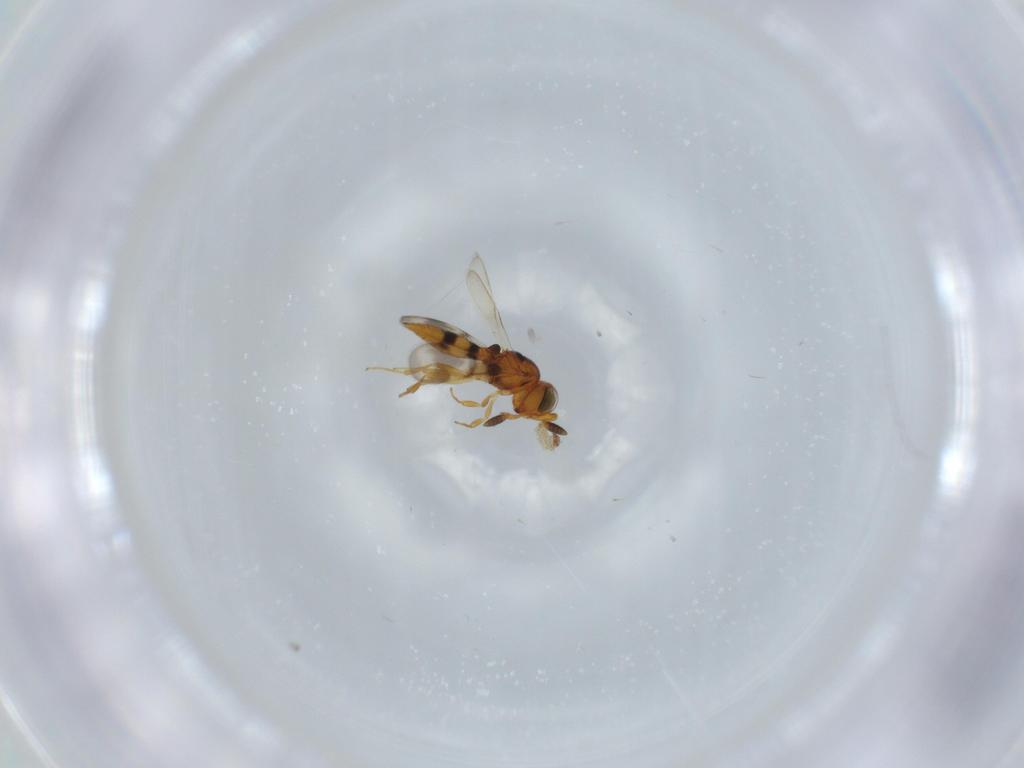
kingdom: Animalia
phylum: Arthropoda
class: Insecta
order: Hymenoptera
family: Scelionidae
